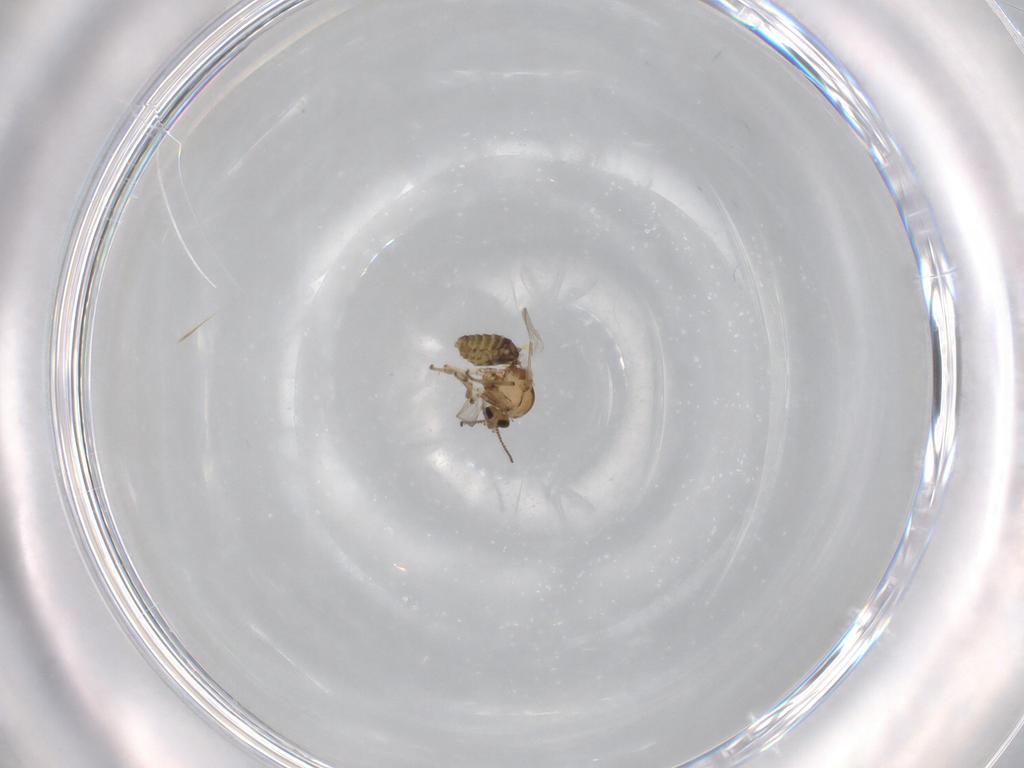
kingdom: Animalia
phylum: Arthropoda
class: Insecta
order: Diptera
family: Ceratopogonidae
